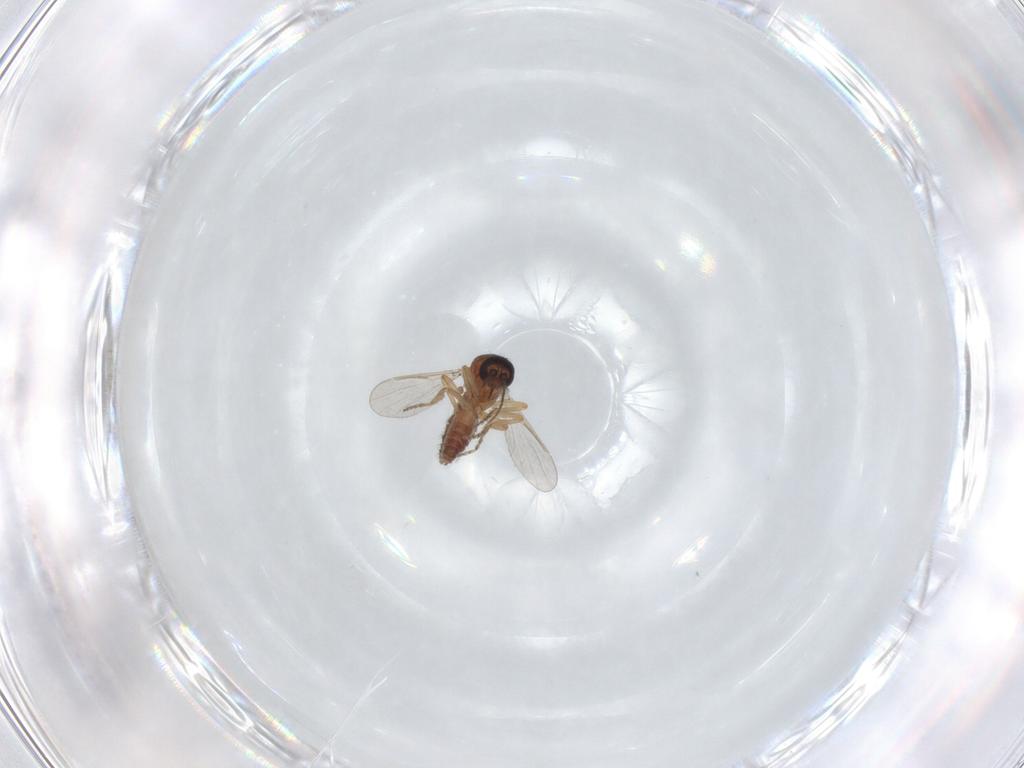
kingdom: Animalia
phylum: Arthropoda
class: Insecta
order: Diptera
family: Ceratopogonidae
